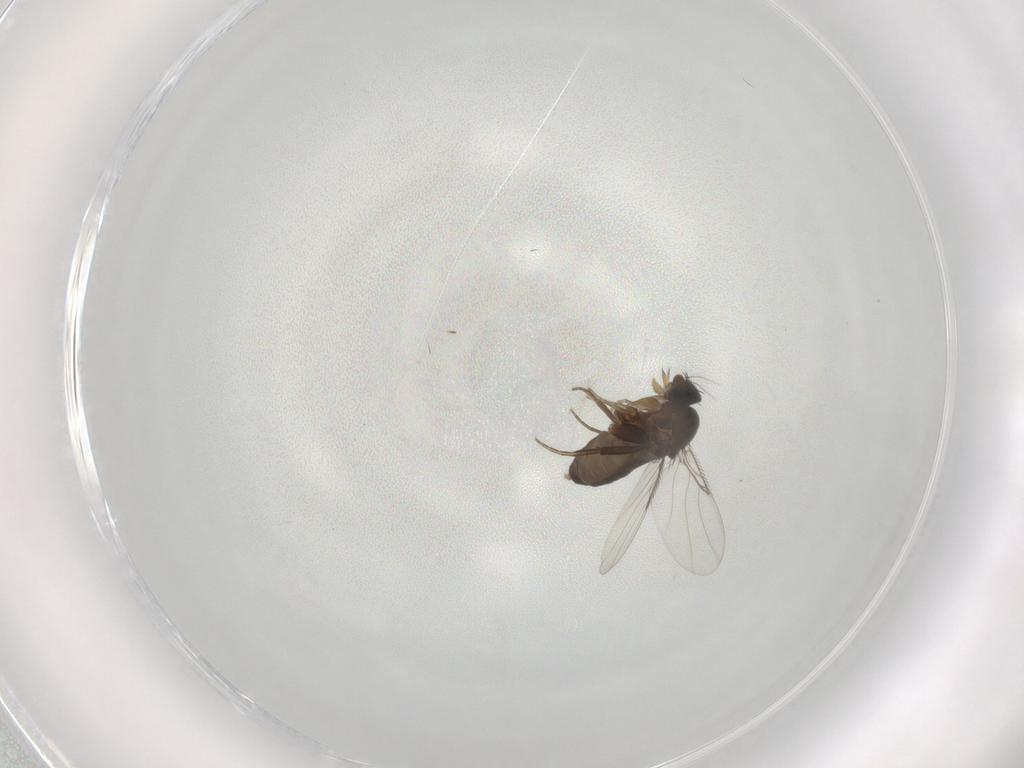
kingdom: Animalia
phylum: Arthropoda
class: Insecta
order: Diptera
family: Phoridae
